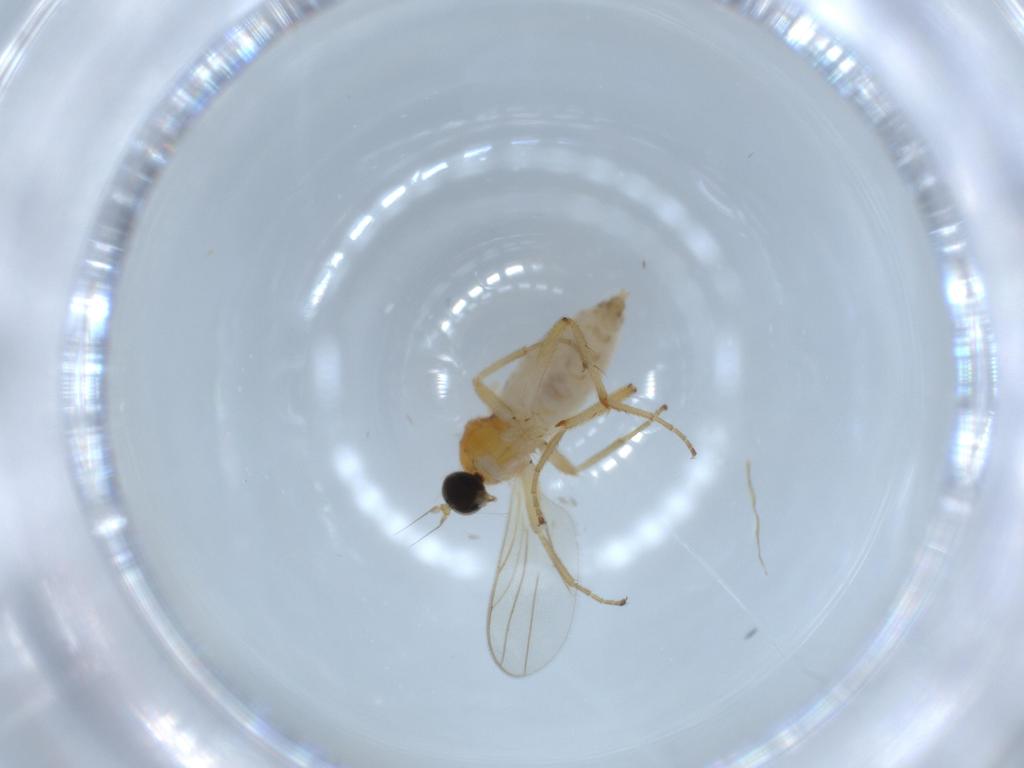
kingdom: Animalia
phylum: Arthropoda
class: Insecta
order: Diptera
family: Hybotidae
